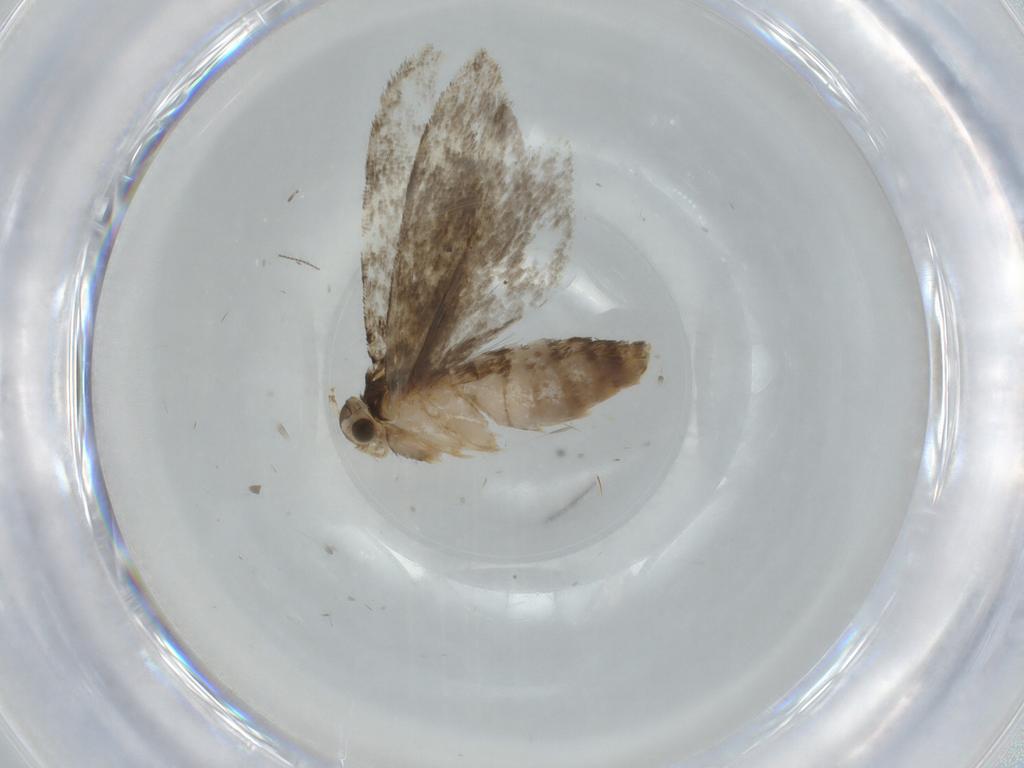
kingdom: Animalia
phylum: Arthropoda
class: Insecta
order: Lepidoptera
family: Tineidae
